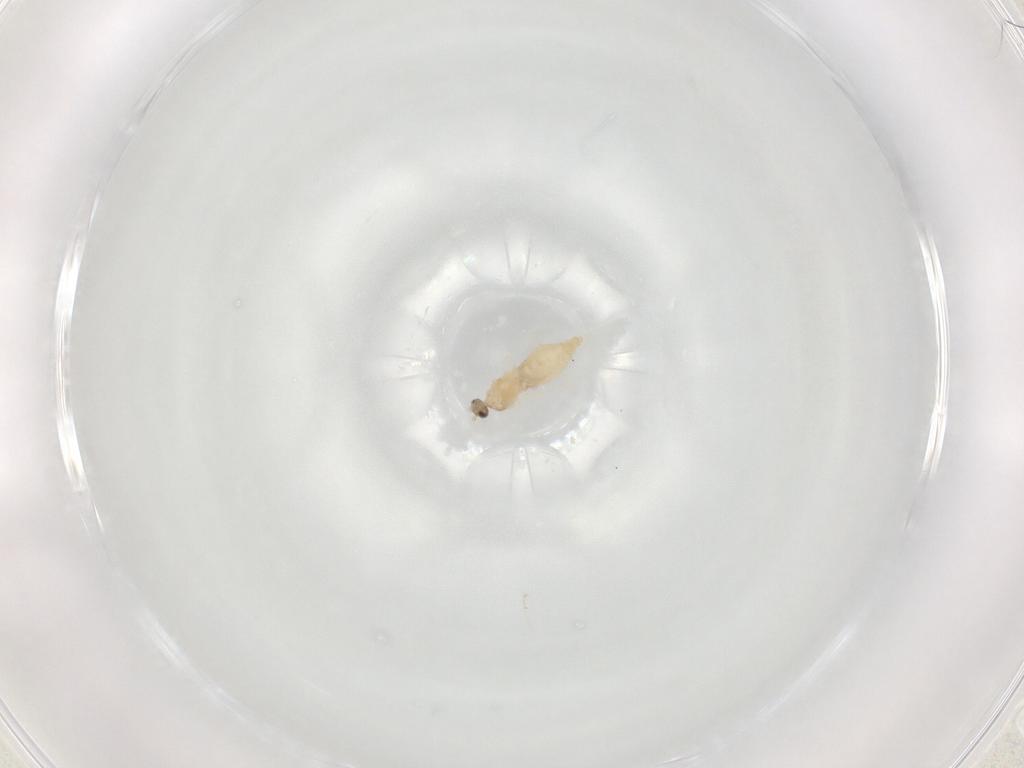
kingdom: Animalia
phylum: Arthropoda
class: Insecta
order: Diptera
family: Cecidomyiidae
